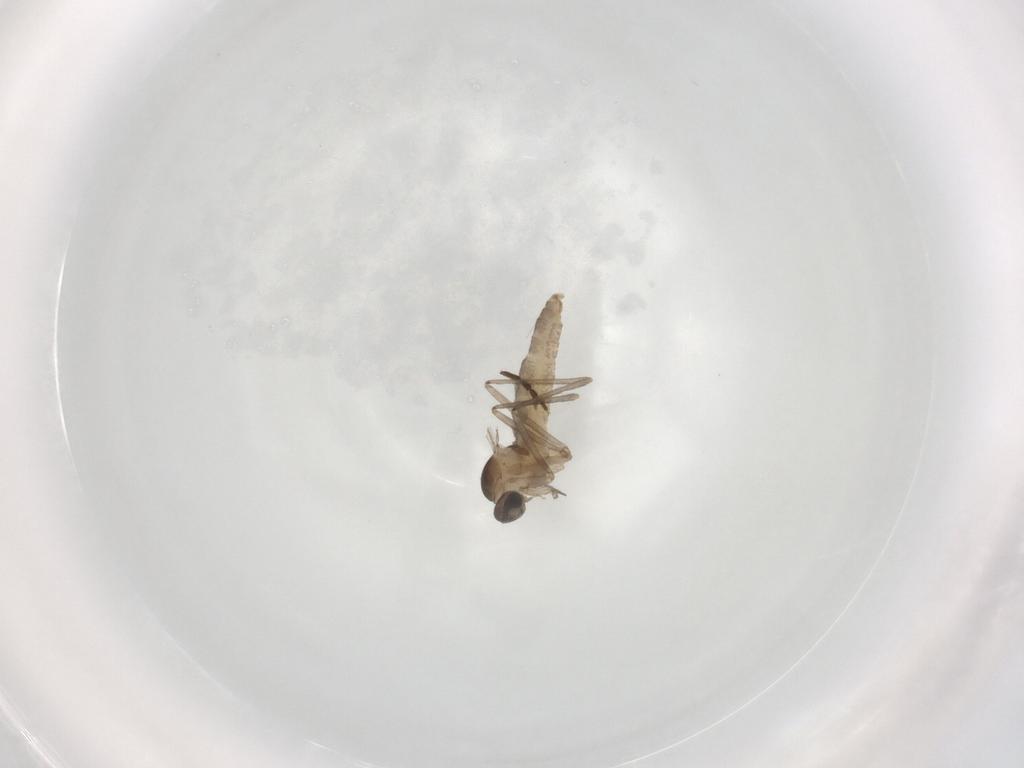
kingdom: Animalia
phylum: Arthropoda
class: Insecta
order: Diptera
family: Cecidomyiidae
